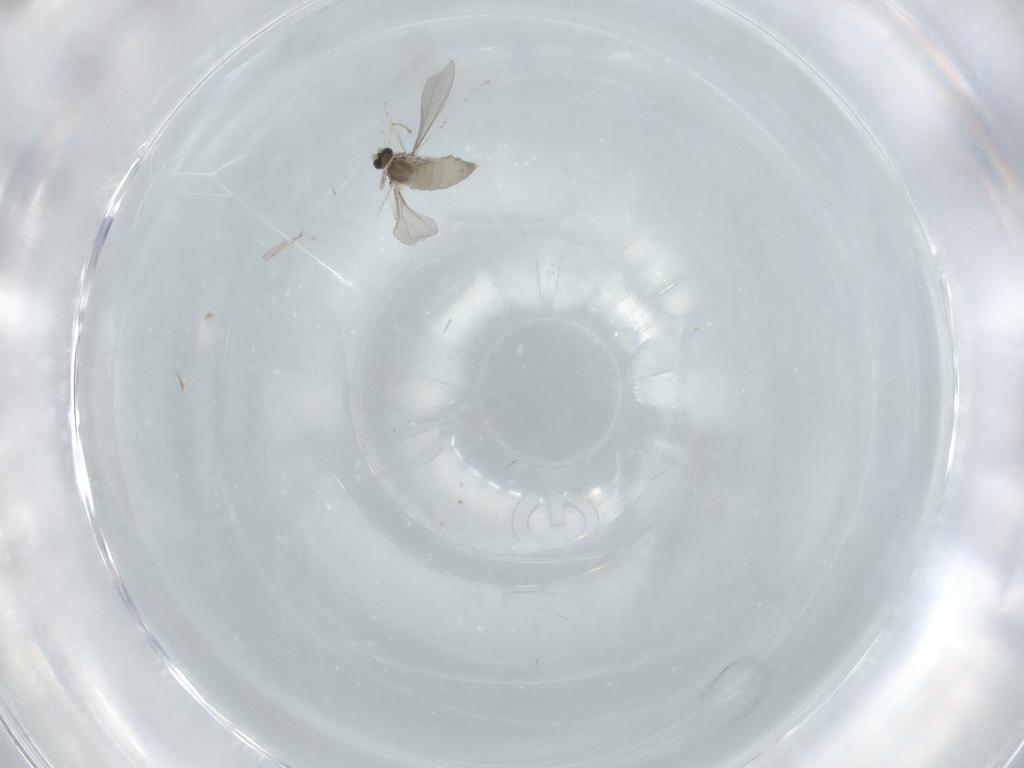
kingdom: Animalia
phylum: Arthropoda
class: Insecta
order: Diptera
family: Cecidomyiidae
